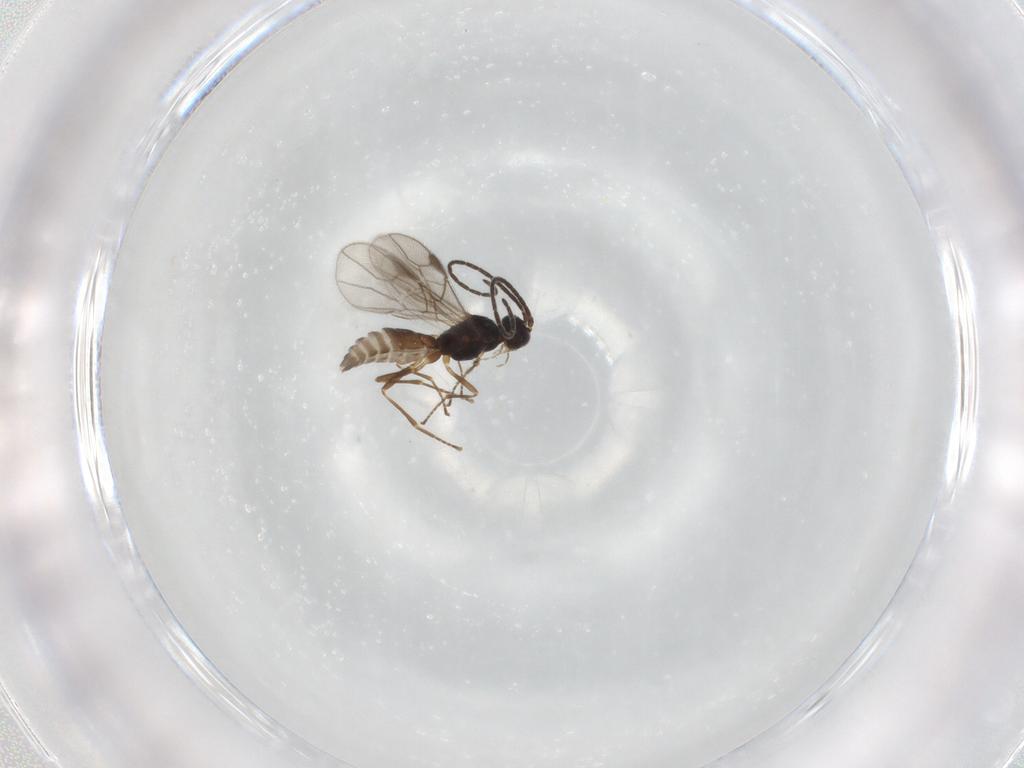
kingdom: Animalia
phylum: Arthropoda
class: Insecta
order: Hymenoptera
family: Braconidae
